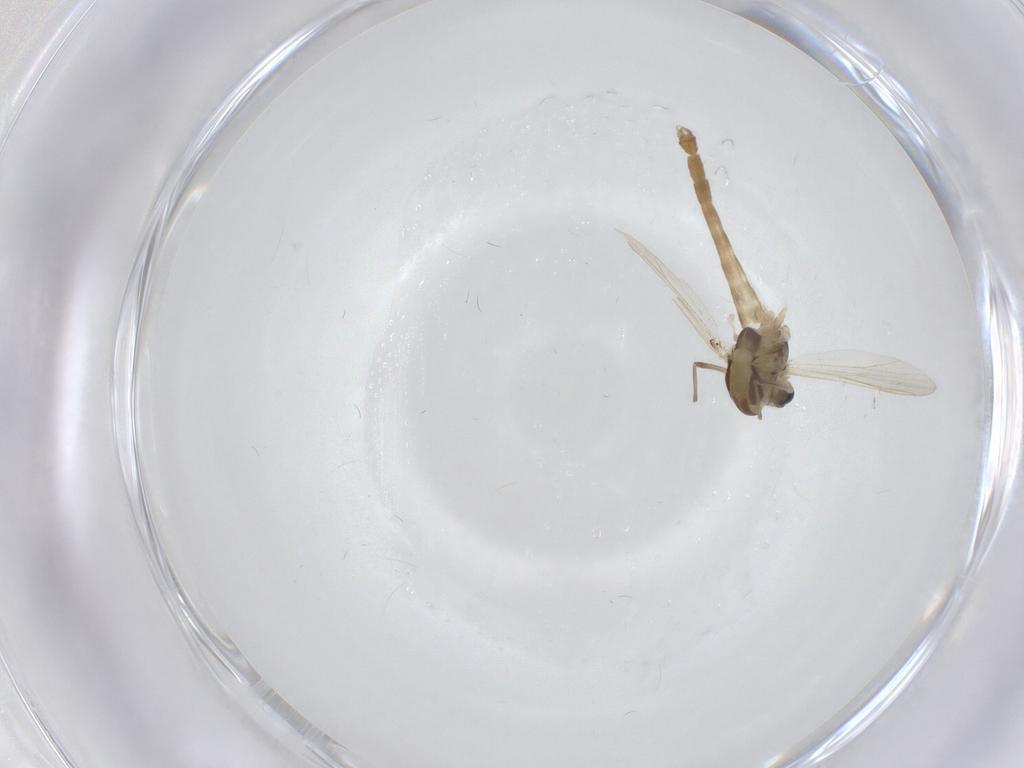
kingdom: Animalia
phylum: Arthropoda
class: Insecta
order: Diptera
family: Chironomidae
